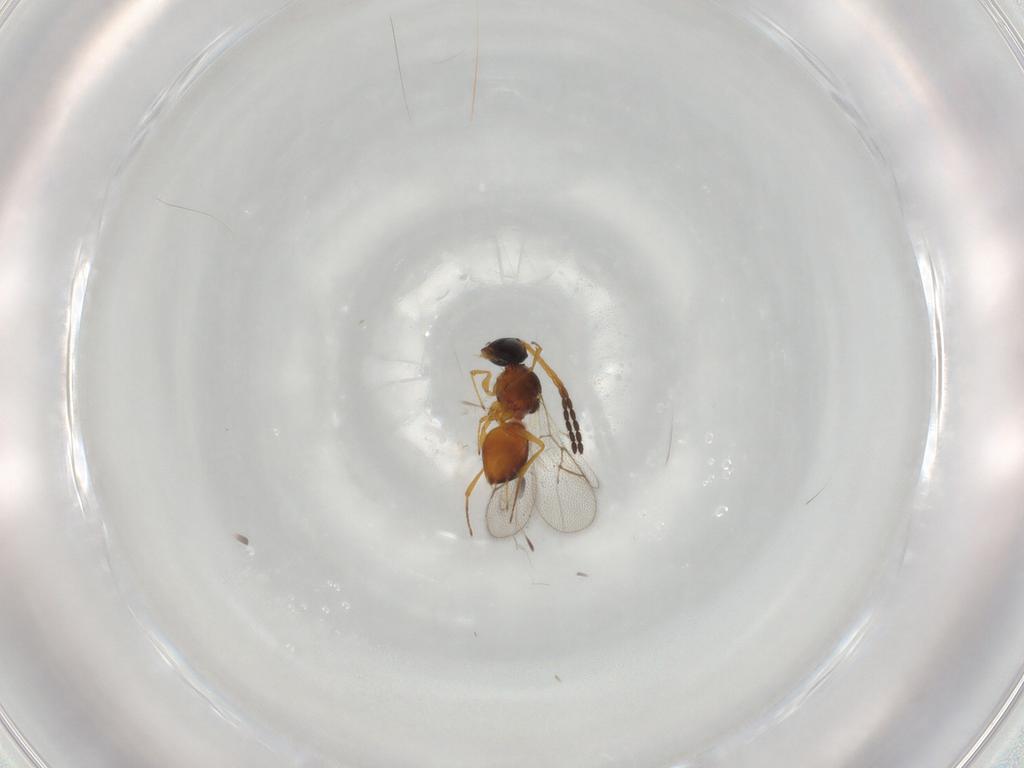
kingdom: Animalia
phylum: Arthropoda
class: Insecta
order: Hymenoptera
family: Figitidae
